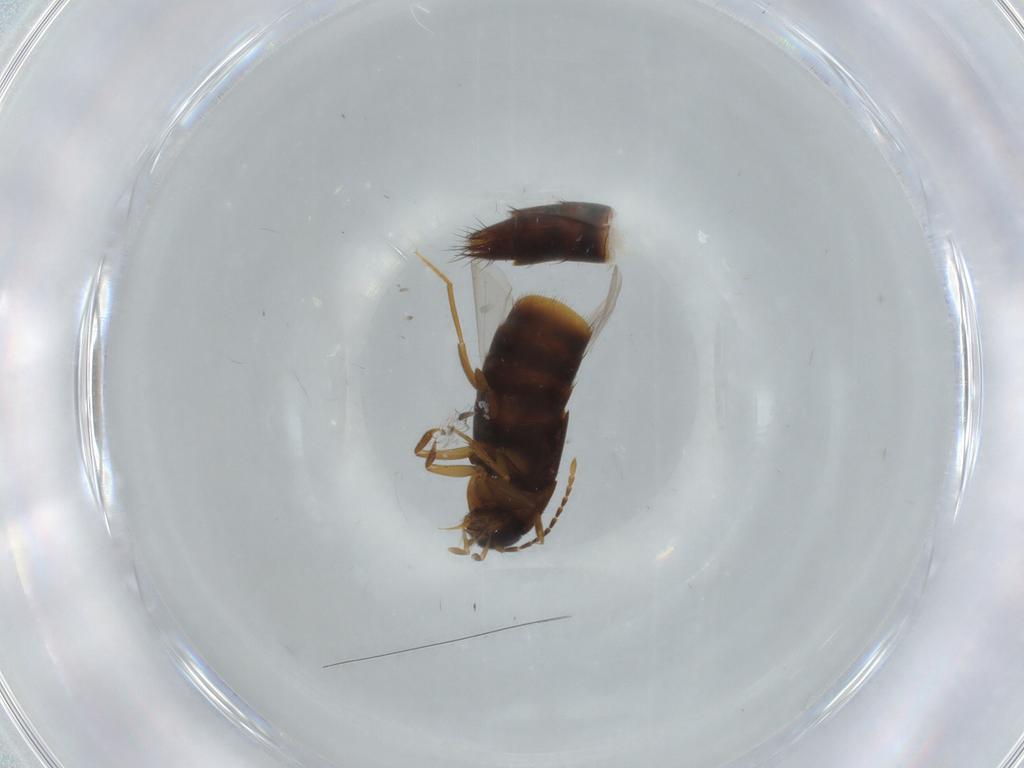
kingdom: Animalia
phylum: Arthropoda
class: Insecta
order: Coleoptera
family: Staphylinidae
